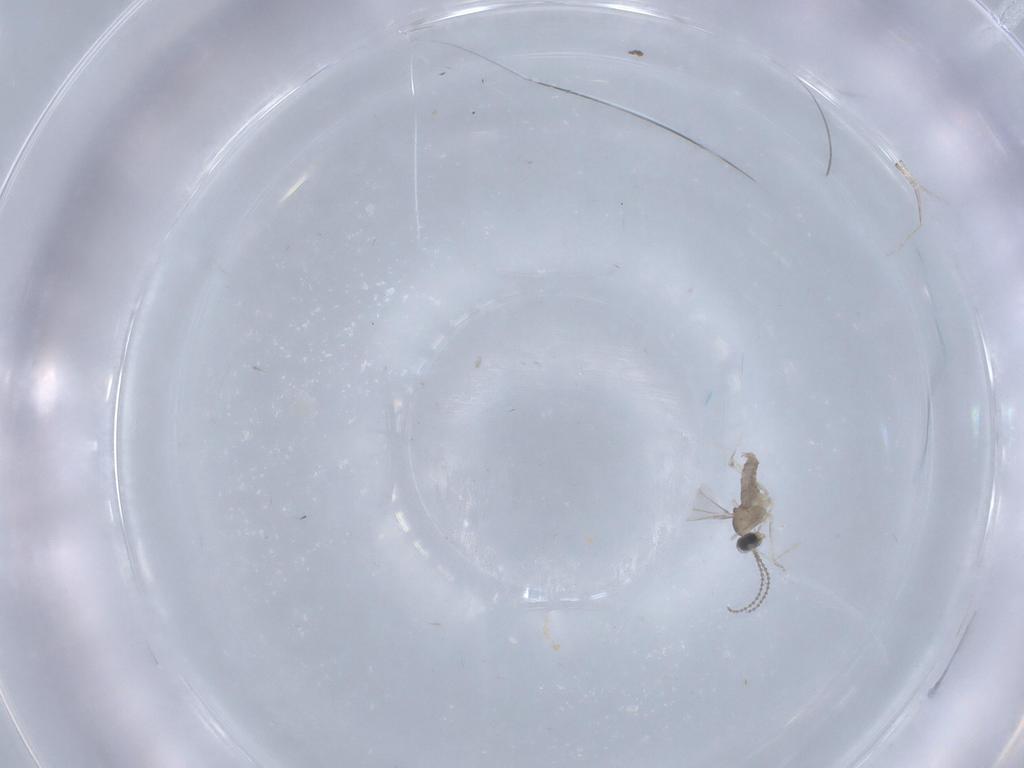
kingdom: Animalia
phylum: Arthropoda
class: Insecta
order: Diptera
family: Cecidomyiidae
